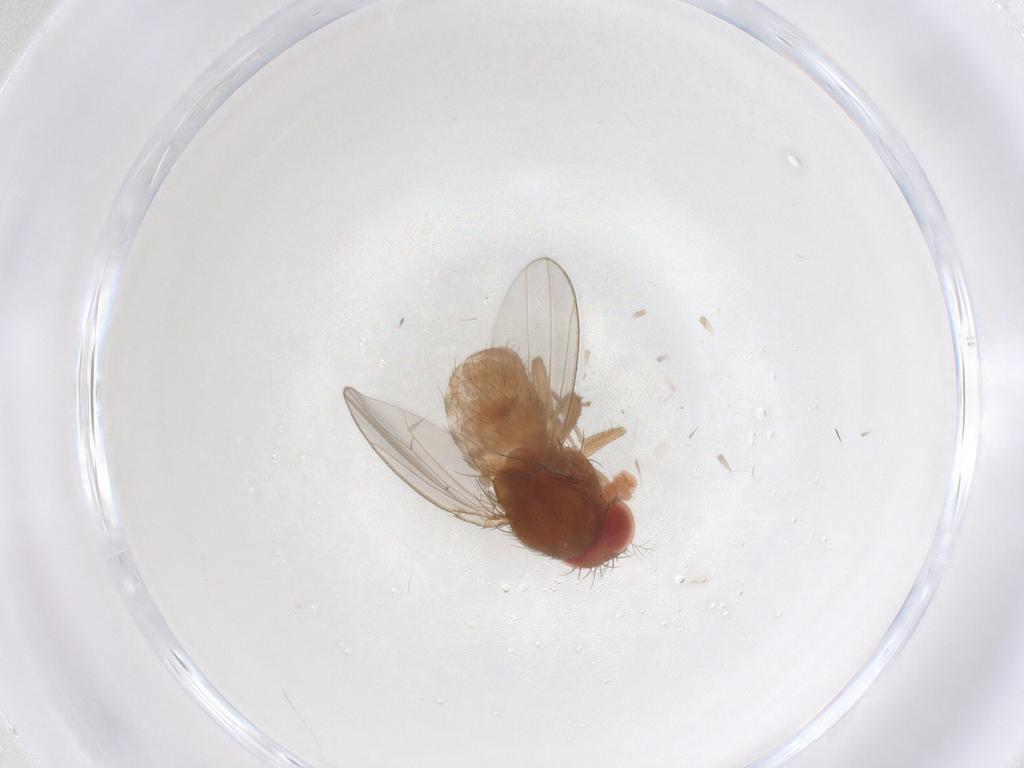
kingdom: Animalia
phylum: Arthropoda
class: Insecta
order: Diptera
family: Drosophilidae
